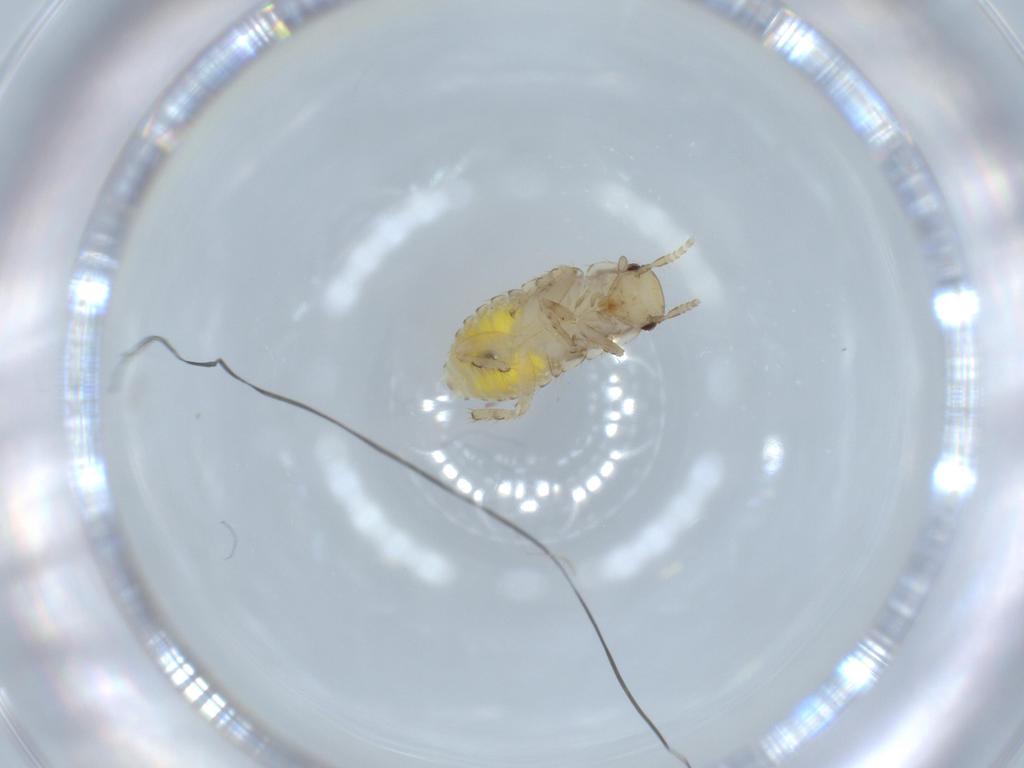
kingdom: Animalia
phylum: Arthropoda
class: Insecta
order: Blattodea
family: Ectobiidae
